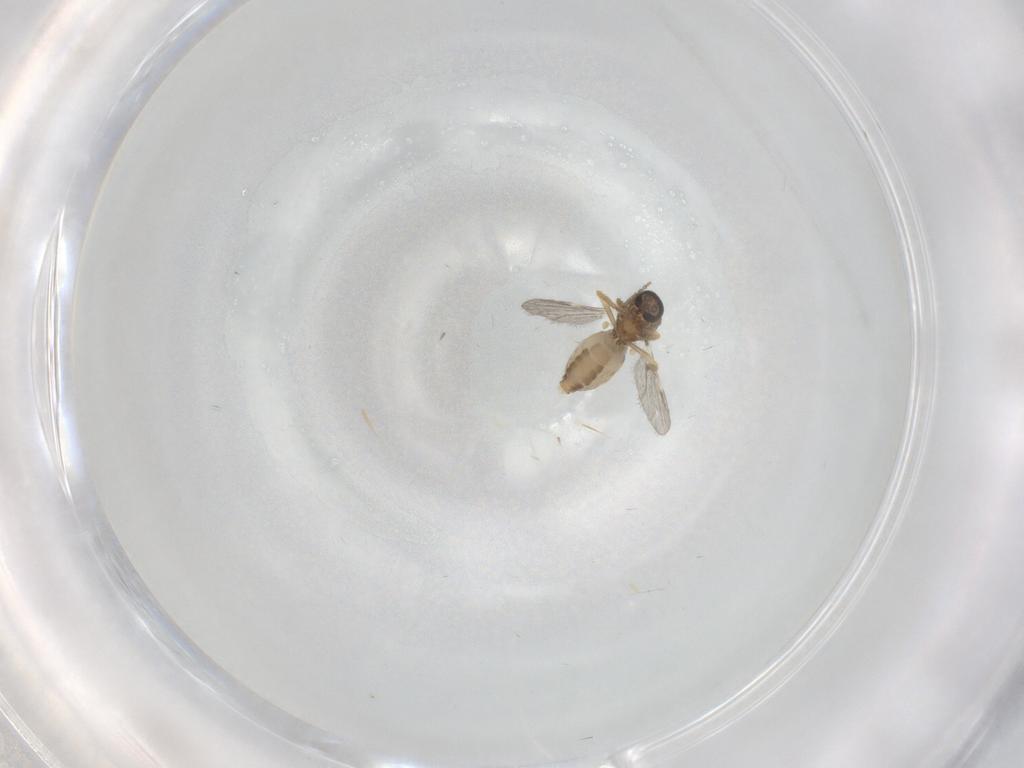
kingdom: Animalia
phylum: Arthropoda
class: Insecta
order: Diptera
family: Ceratopogonidae
